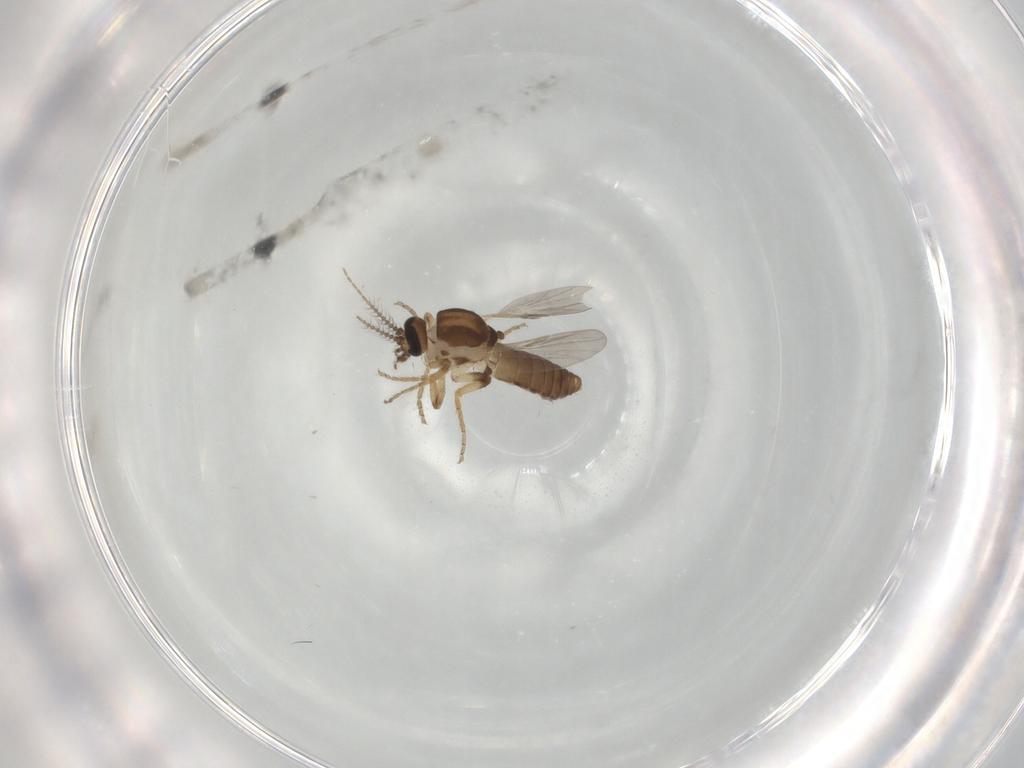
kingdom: Animalia
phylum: Arthropoda
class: Insecta
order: Diptera
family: Ceratopogonidae
